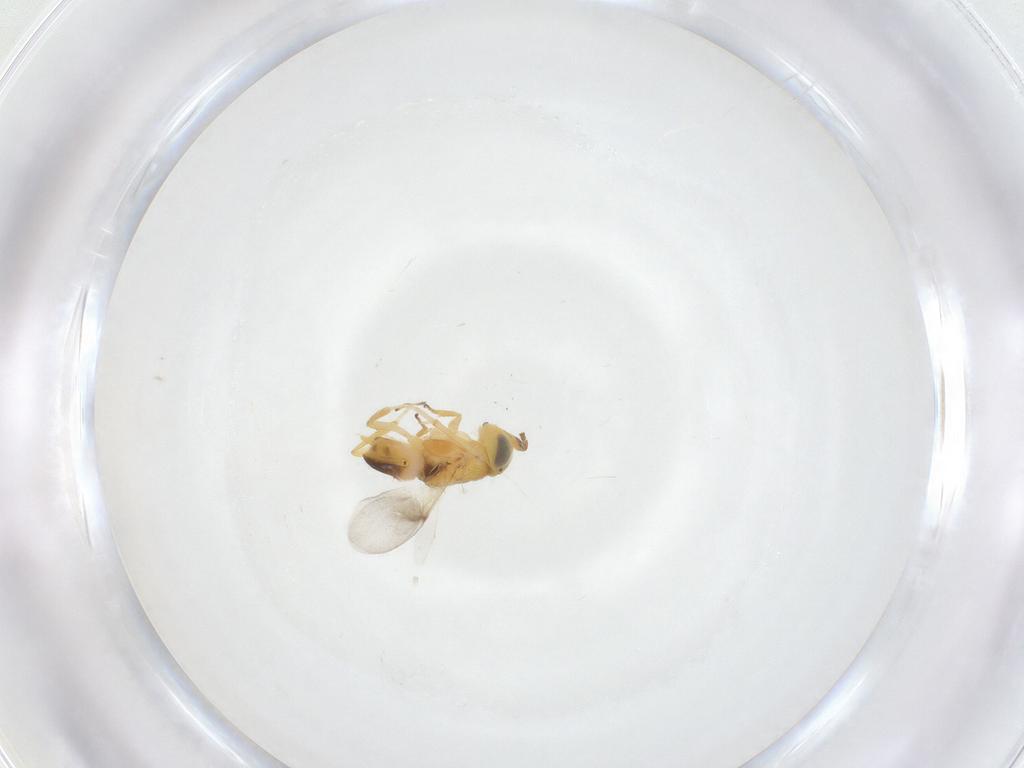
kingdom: Animalia
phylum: Arthropoda
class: Insecta
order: Hymenoptera
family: Encyrtidae
